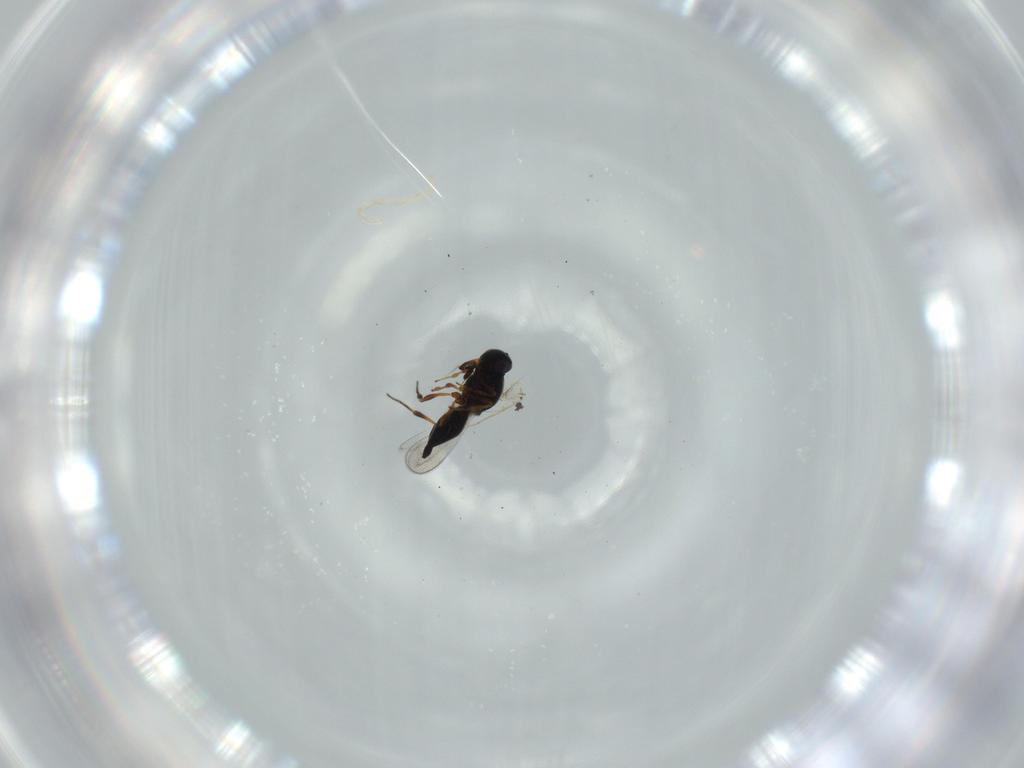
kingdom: Animalia
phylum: Arthropoda
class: Insecta
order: Hymenoptera
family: Platygastridae
